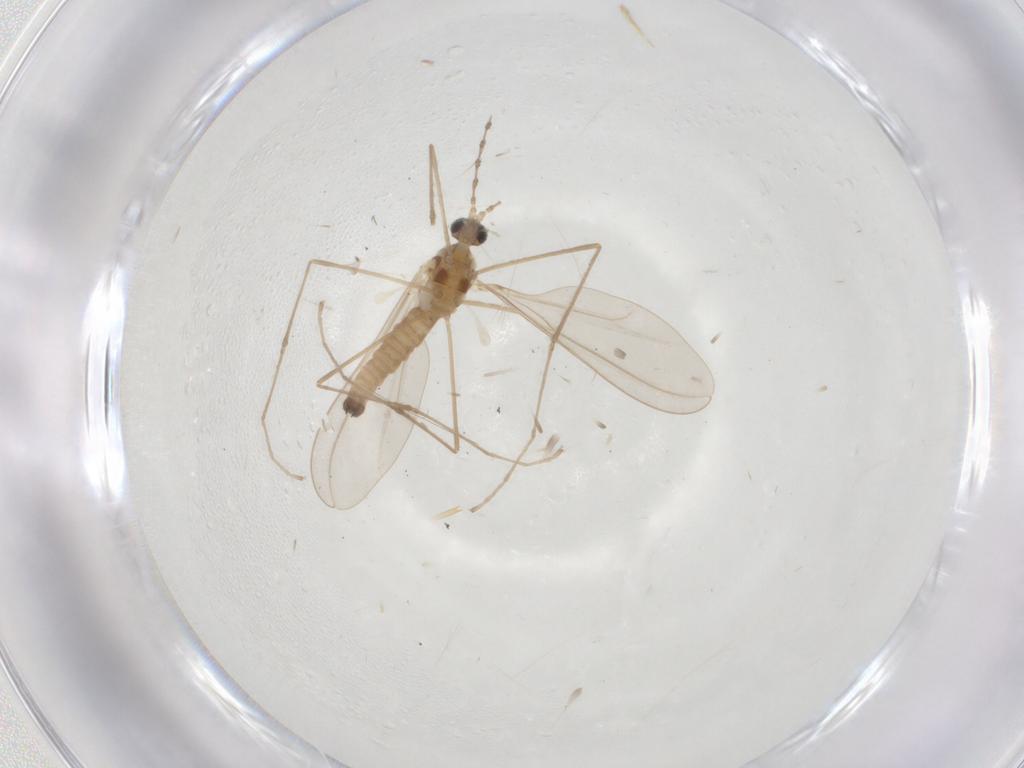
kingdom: Animalia
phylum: Arthropoda
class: Insecta
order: Diptera
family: Cecidomyiidae
